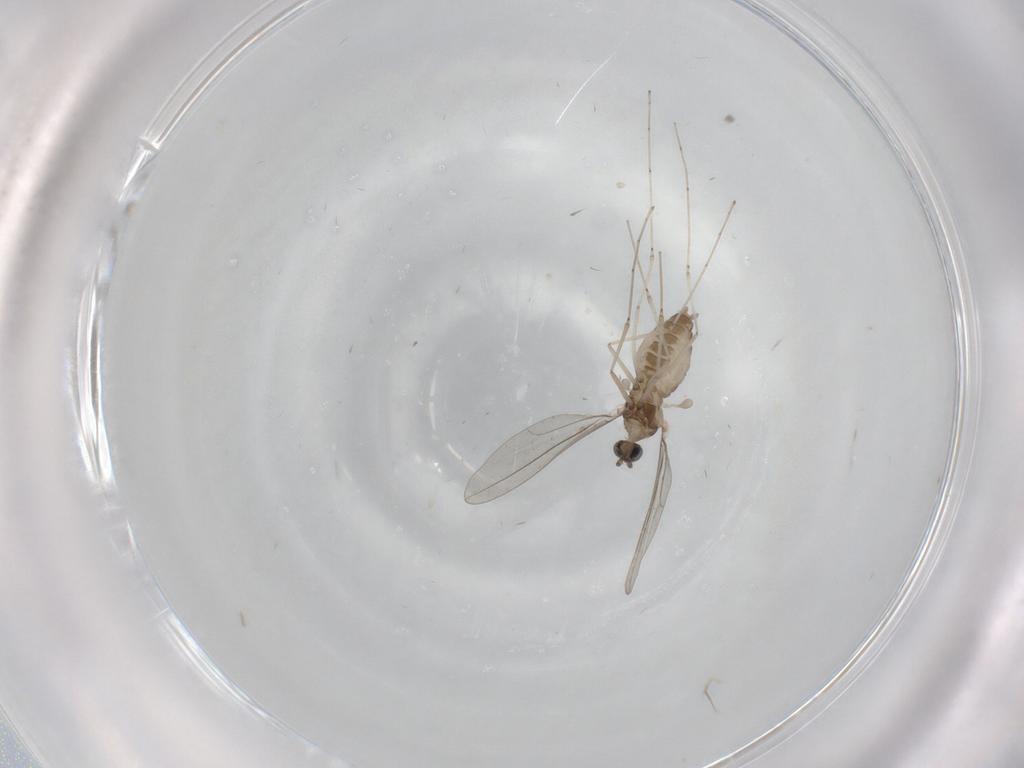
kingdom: Animalia
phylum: Arthropoda
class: Insecta
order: Diptera
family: Cecidomyiidae
